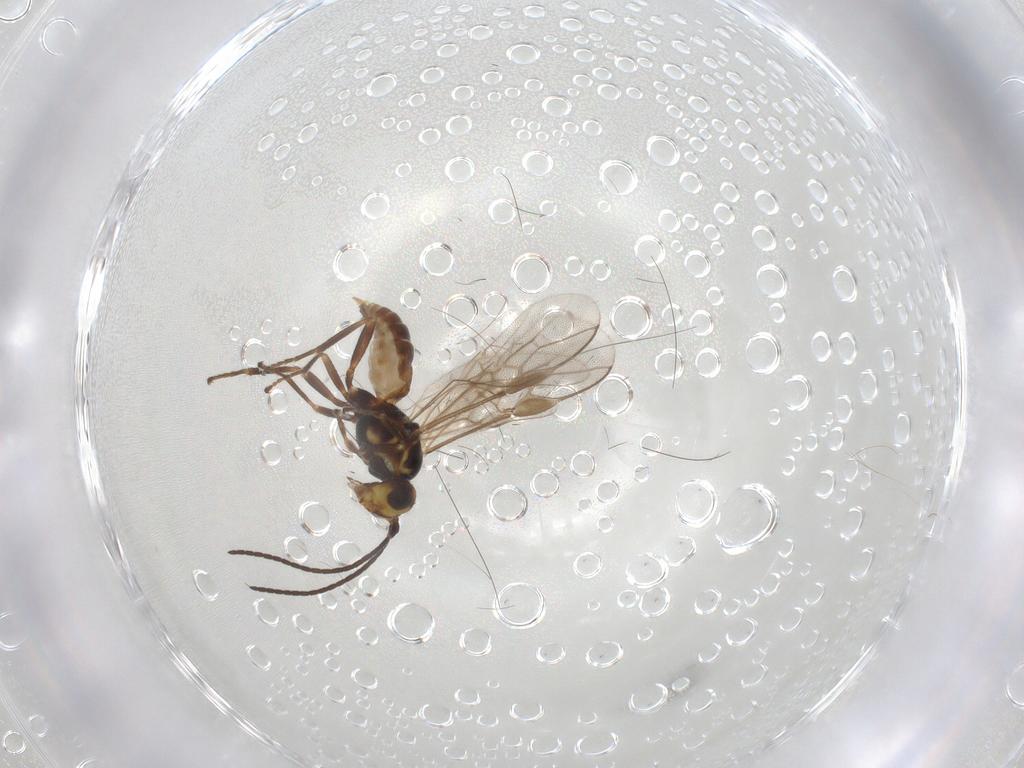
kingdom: Animalia
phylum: Arthropoda
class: Insecta
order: Hymenoptera
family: Braconidae
